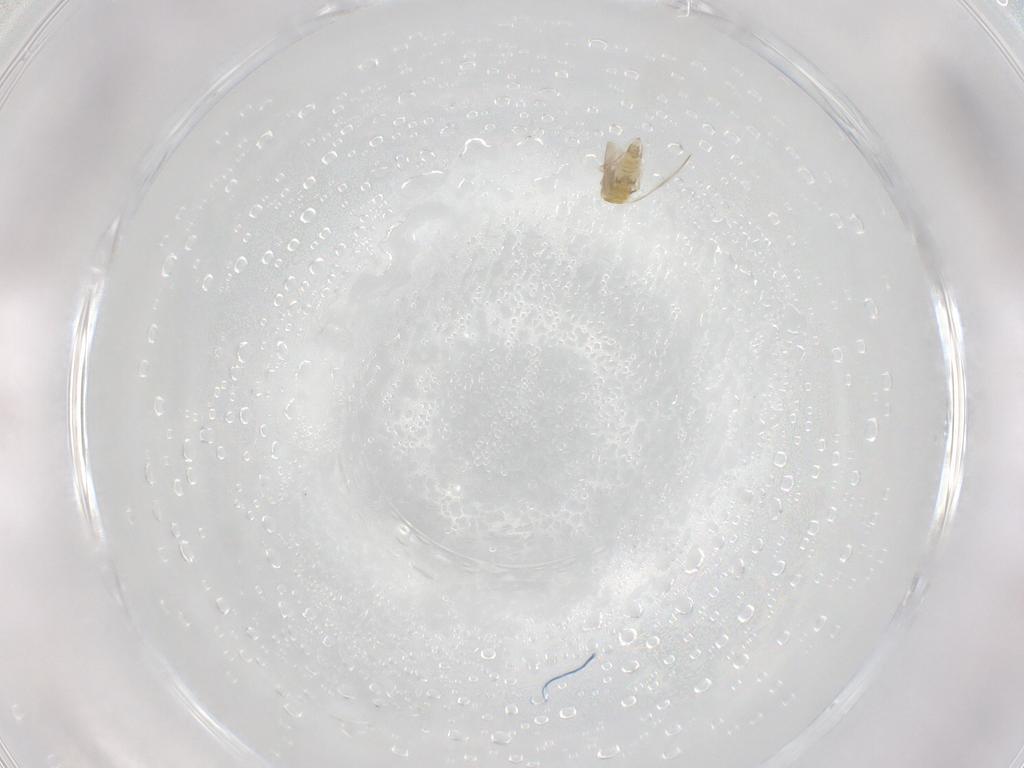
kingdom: Animalia
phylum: Arthropoda
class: Insecta
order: Hemiptera
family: Aleyrodidae
